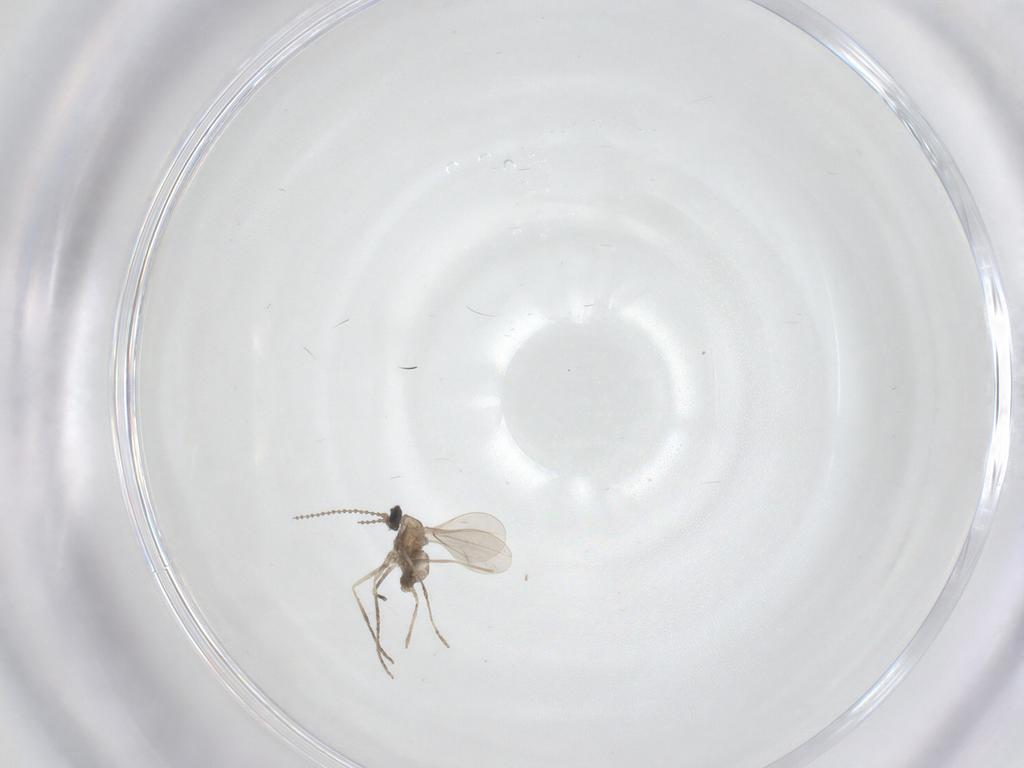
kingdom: Animalia
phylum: Arthropoda
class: Insecta
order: Diptera
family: Cecidomyiidae
